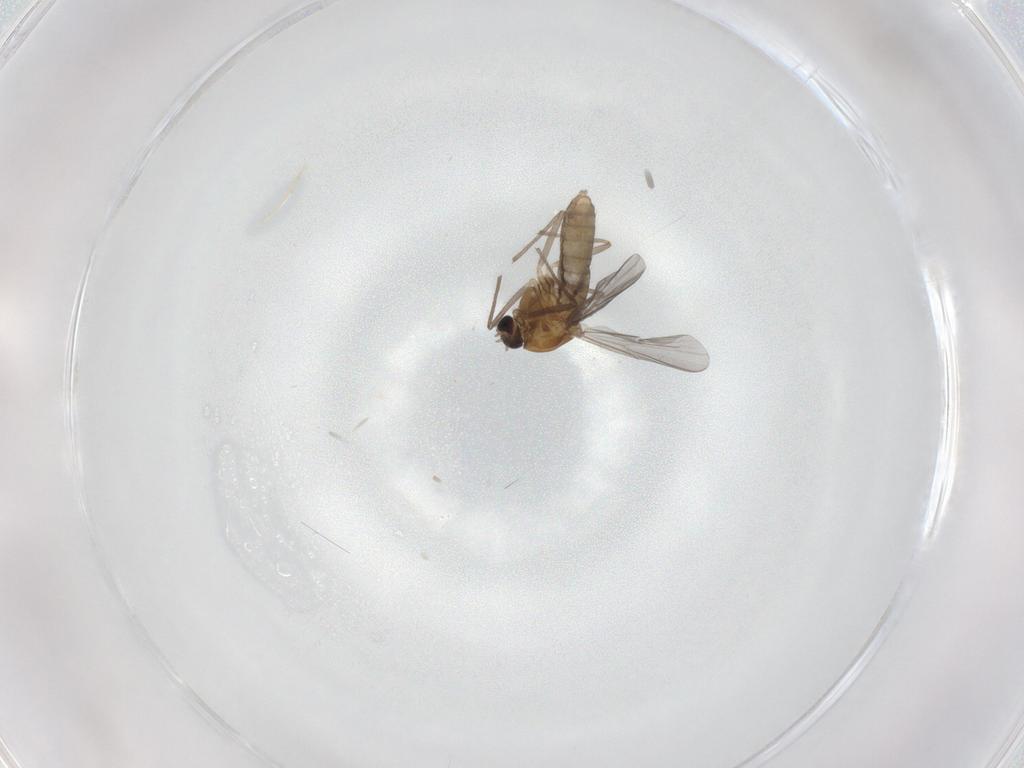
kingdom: Animalia
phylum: Arthropoda
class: Insecta
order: Diptera
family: Chironomidae
